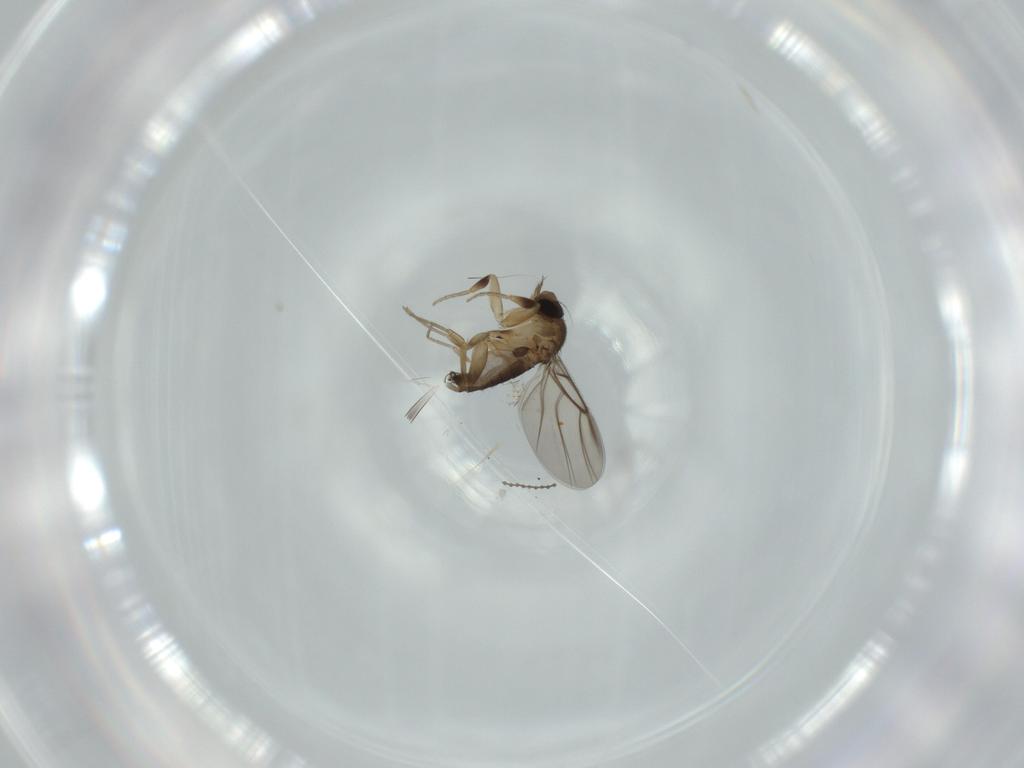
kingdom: Animalia
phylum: Arthropoda
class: Insecta
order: Diptera
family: Phoridae
